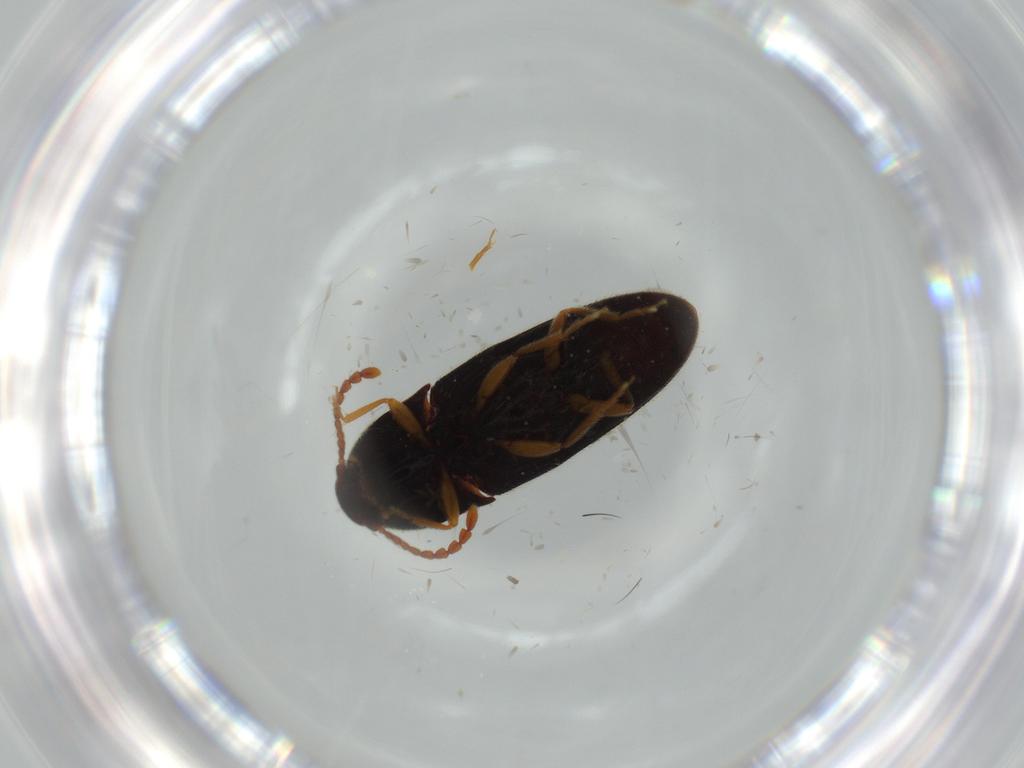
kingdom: Animalia
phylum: Arthropoda
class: Insecta
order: Coleoptera
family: Elateridae
